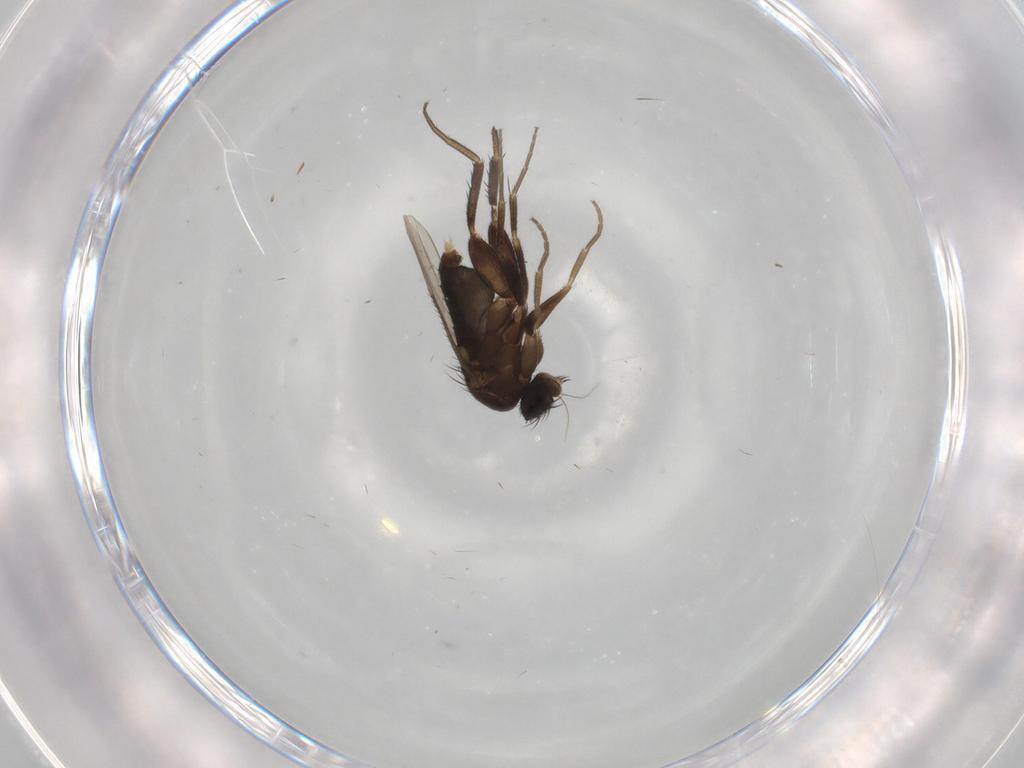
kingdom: Animalia
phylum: Arthropoda
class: Insecta
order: Diptera
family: Phoridae
